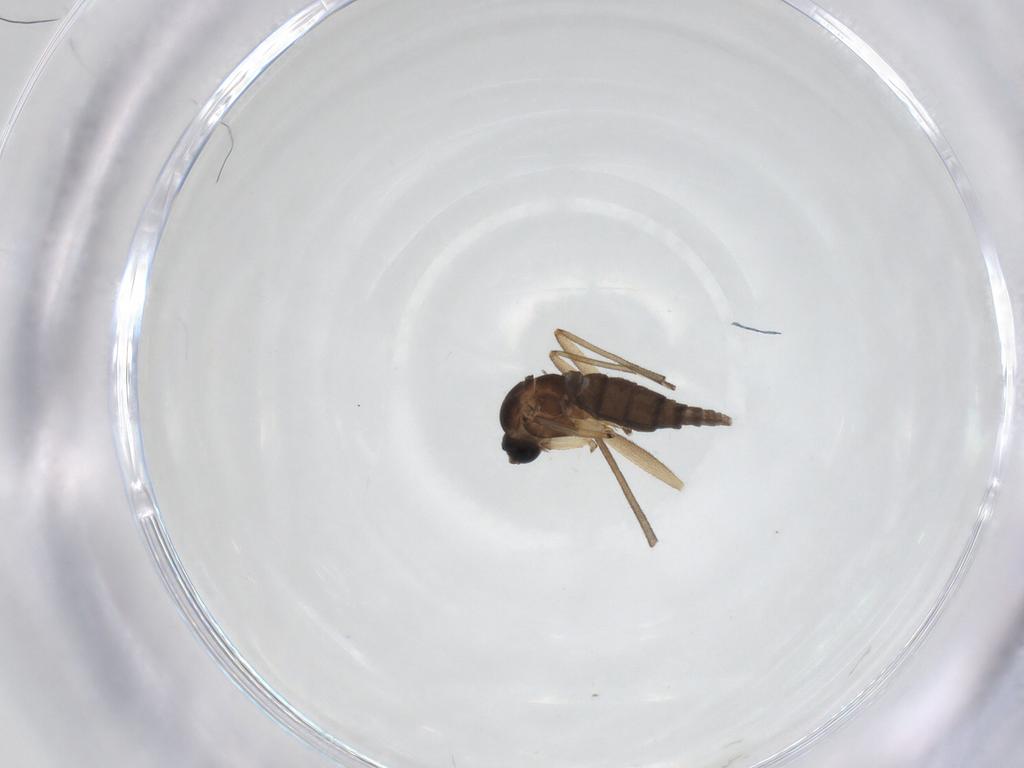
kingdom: Animalia
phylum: Arthropoda
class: Insecta
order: Diptera
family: Sciaridae
